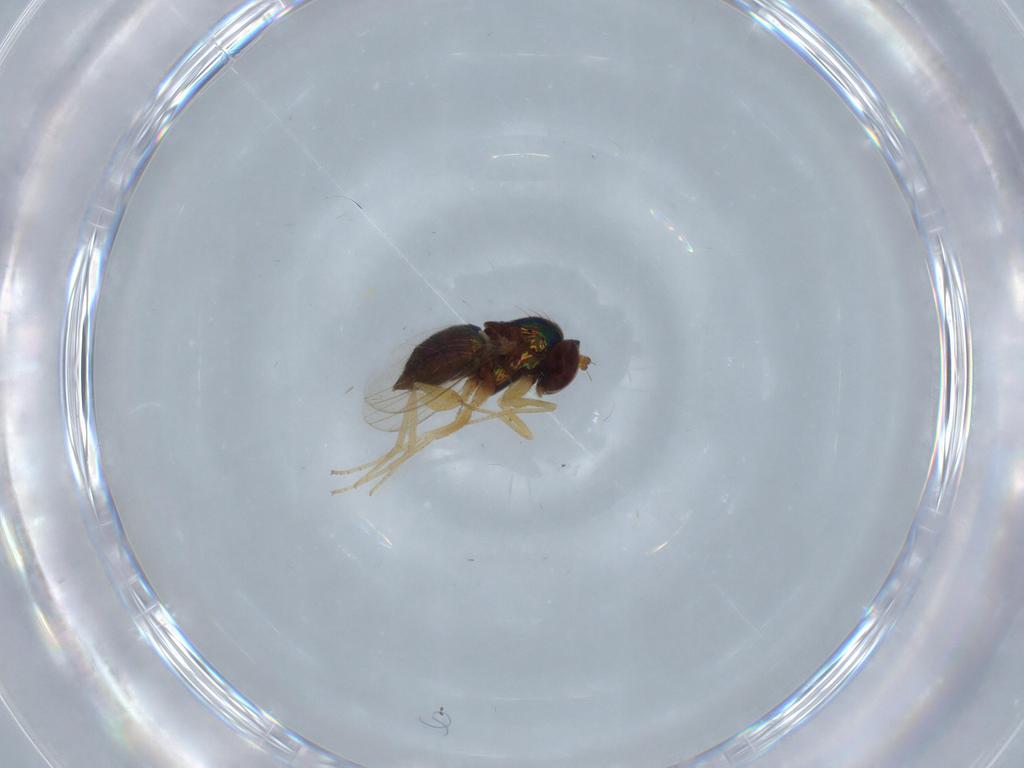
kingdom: Animalia
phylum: Arthropoda
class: Insecta
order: Diptera
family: Dolichopodidae
